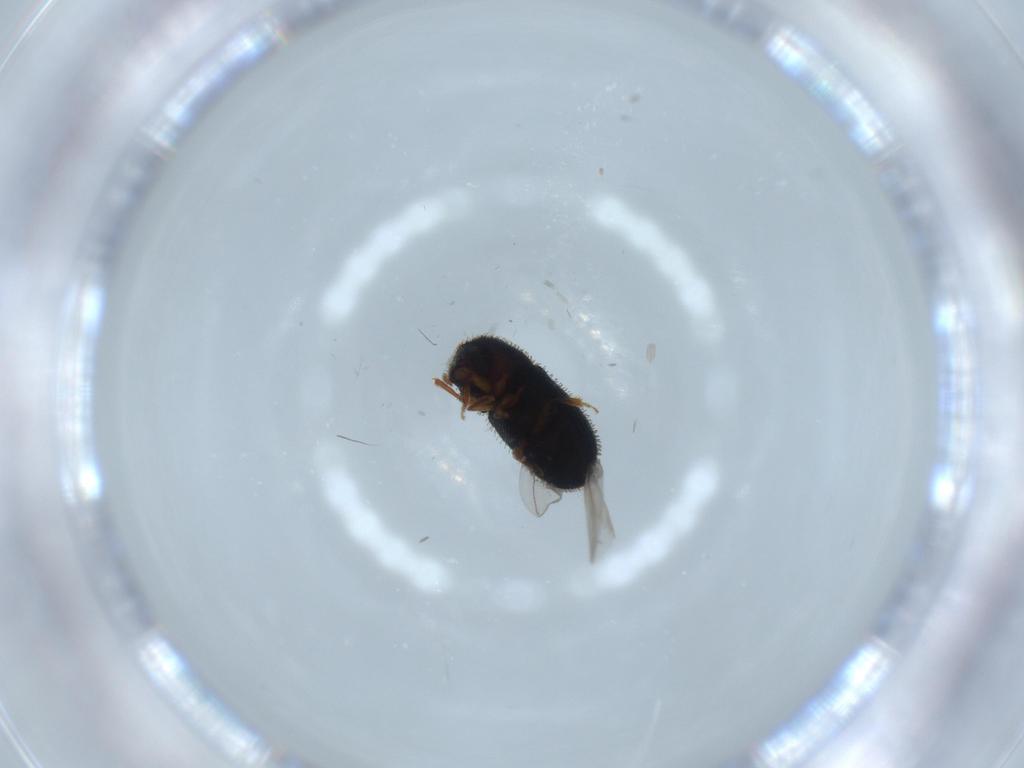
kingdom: Animalia
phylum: Arthropoda
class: Insecta
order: Coleoptera
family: Curculionidae
